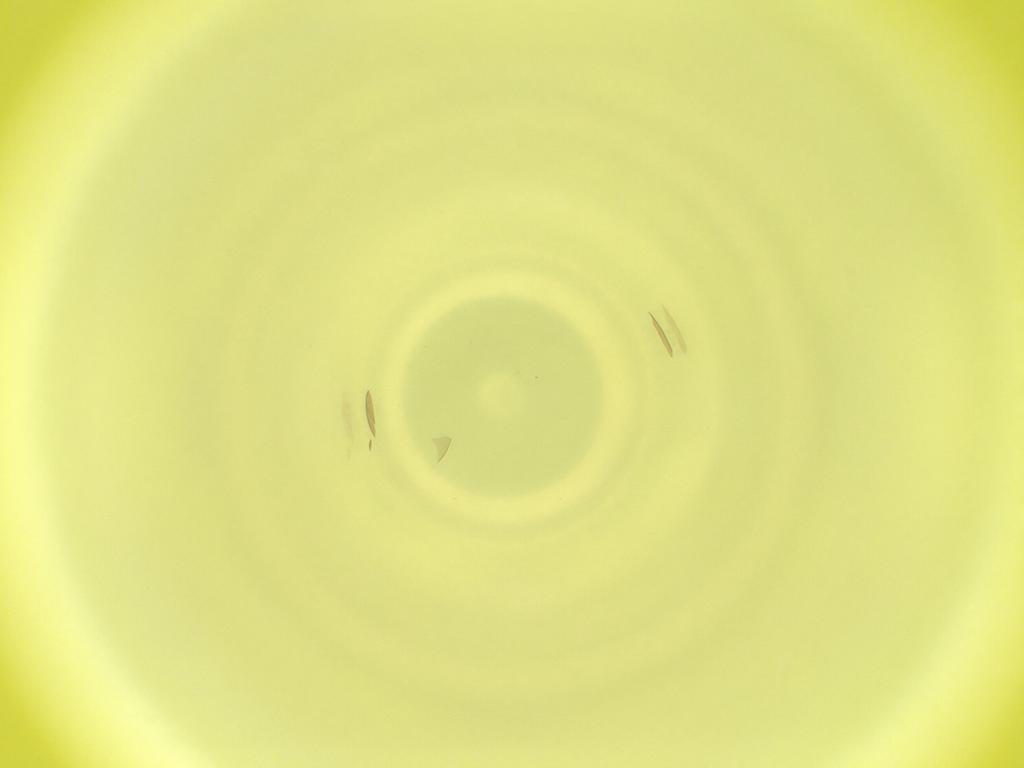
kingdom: Animalia
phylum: Arthropoda
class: Insecta
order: Diptera
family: Cecidomyiidae
